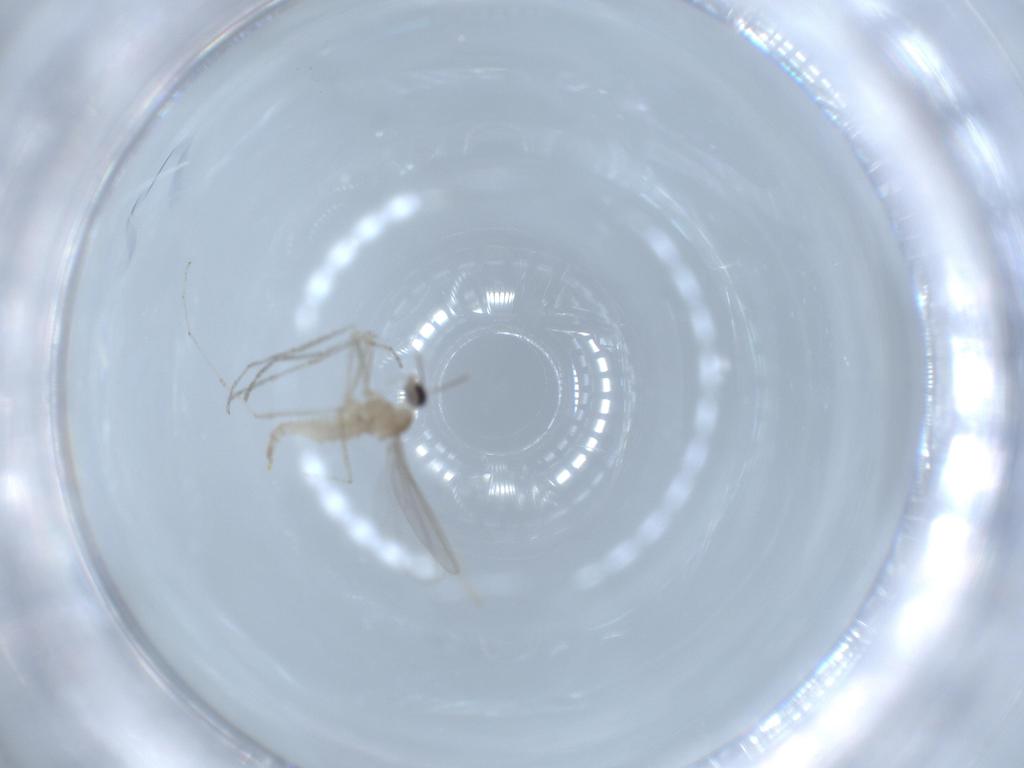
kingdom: Animalia
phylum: Arthropoda
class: Insecta
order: Diptera
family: Cecidomyiidae
